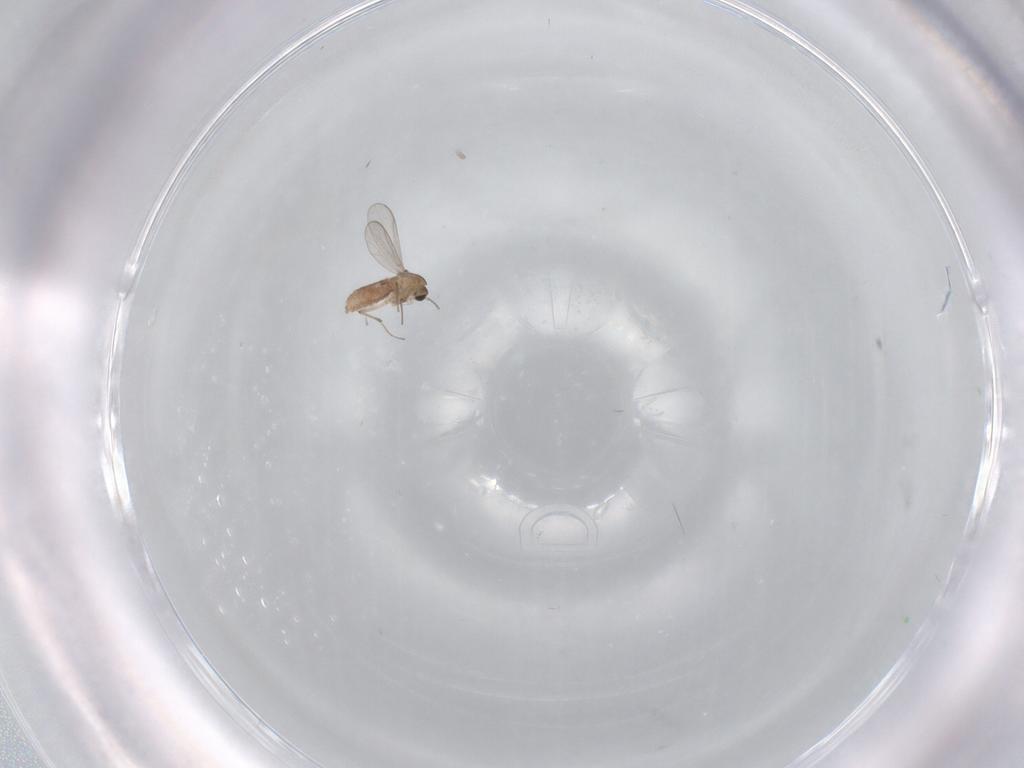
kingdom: Animalia
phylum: Arthropoda
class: Insecta
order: Diptera
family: Chironomidae
